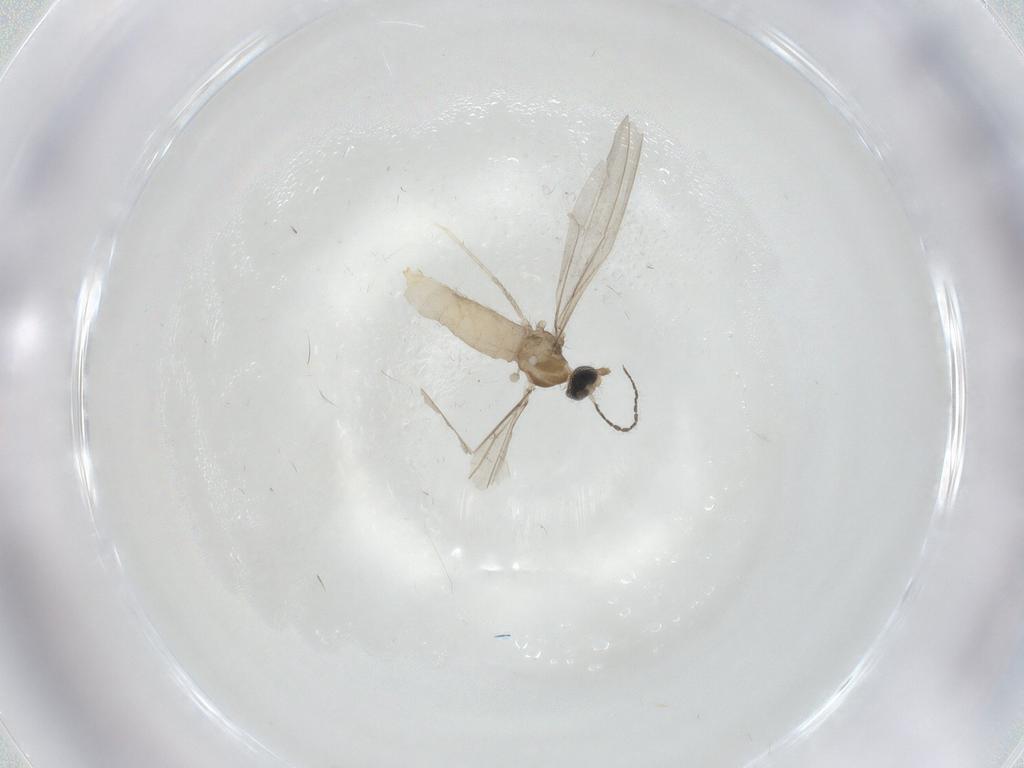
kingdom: Animalia
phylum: Arthropoda
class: Insecta
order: Diptera
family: Cecidomyiidae
